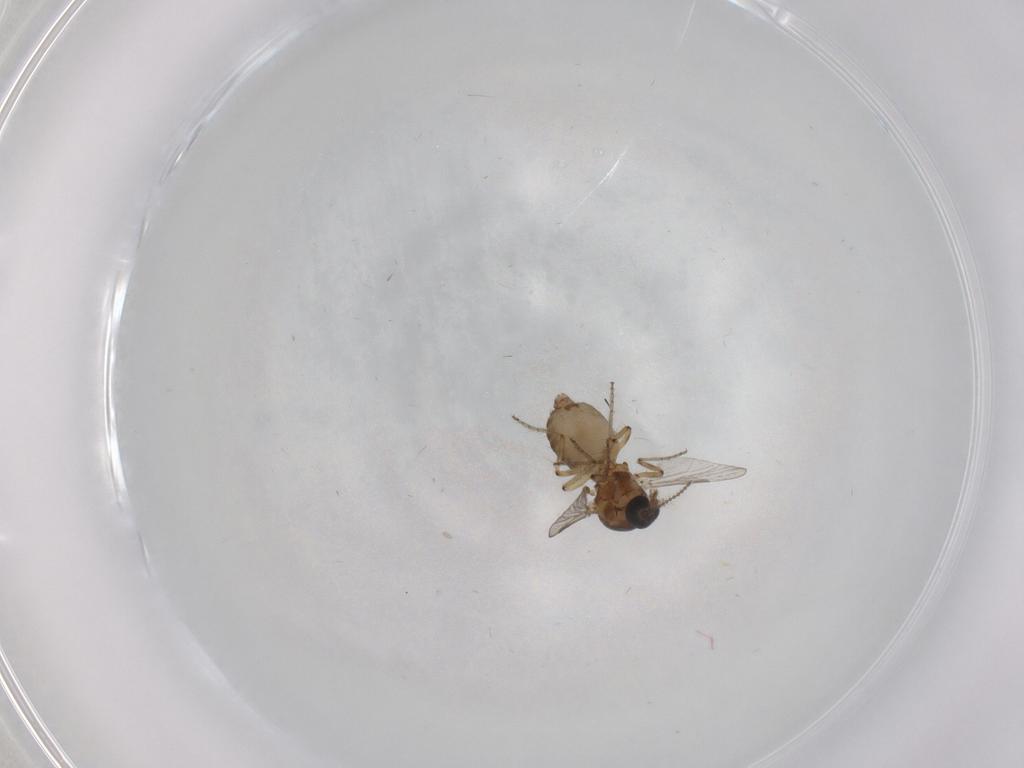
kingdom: Animalia
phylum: Arthropoda
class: Insecta
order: Diptera
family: Ceratopogonidae
